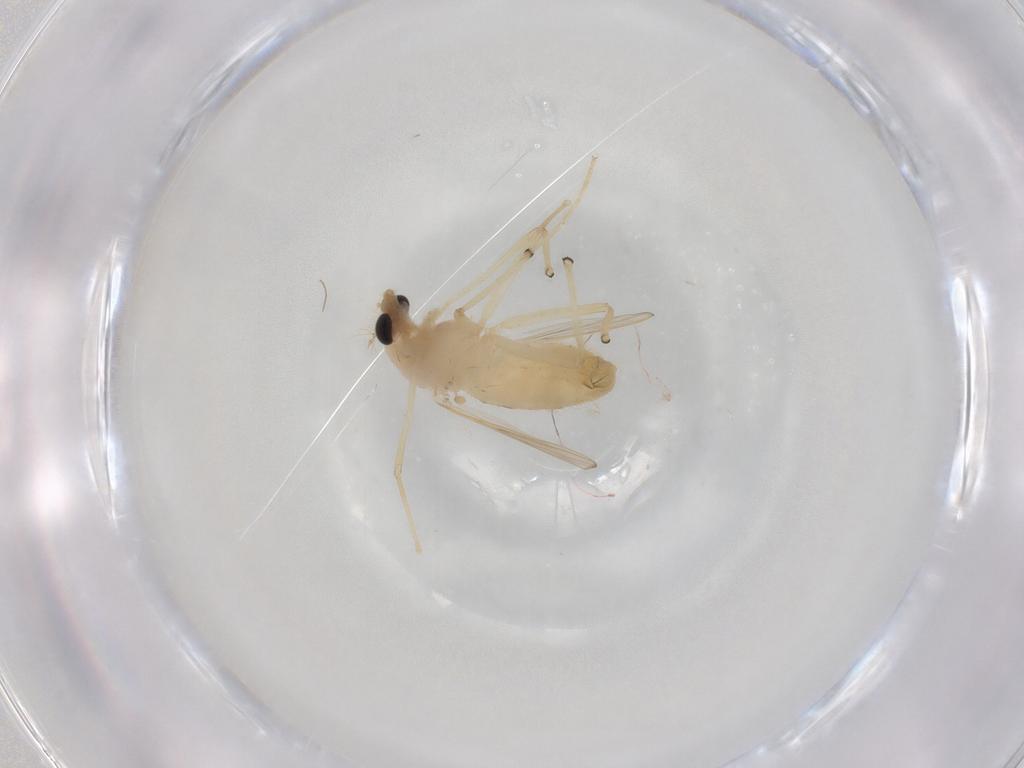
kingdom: Animalia
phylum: Arthropoda
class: Insecta
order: Diptera
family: Chironomidae
